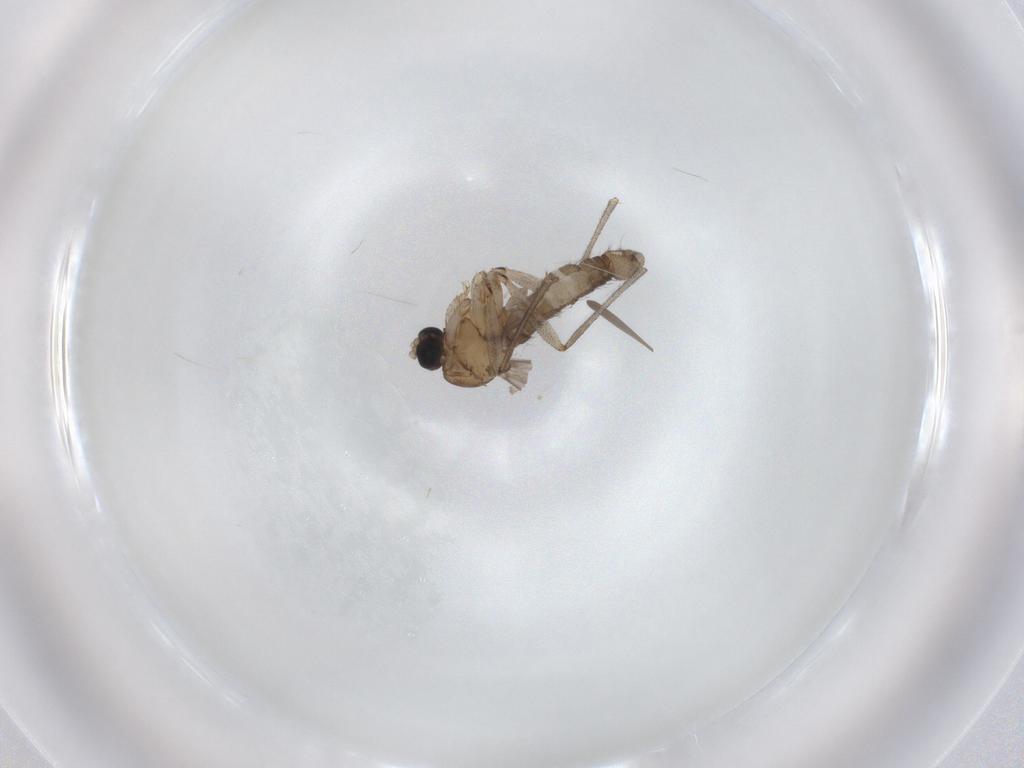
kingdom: Animalia
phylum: Arthropoda
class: Insecta
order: Diptera
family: Sciaridae
